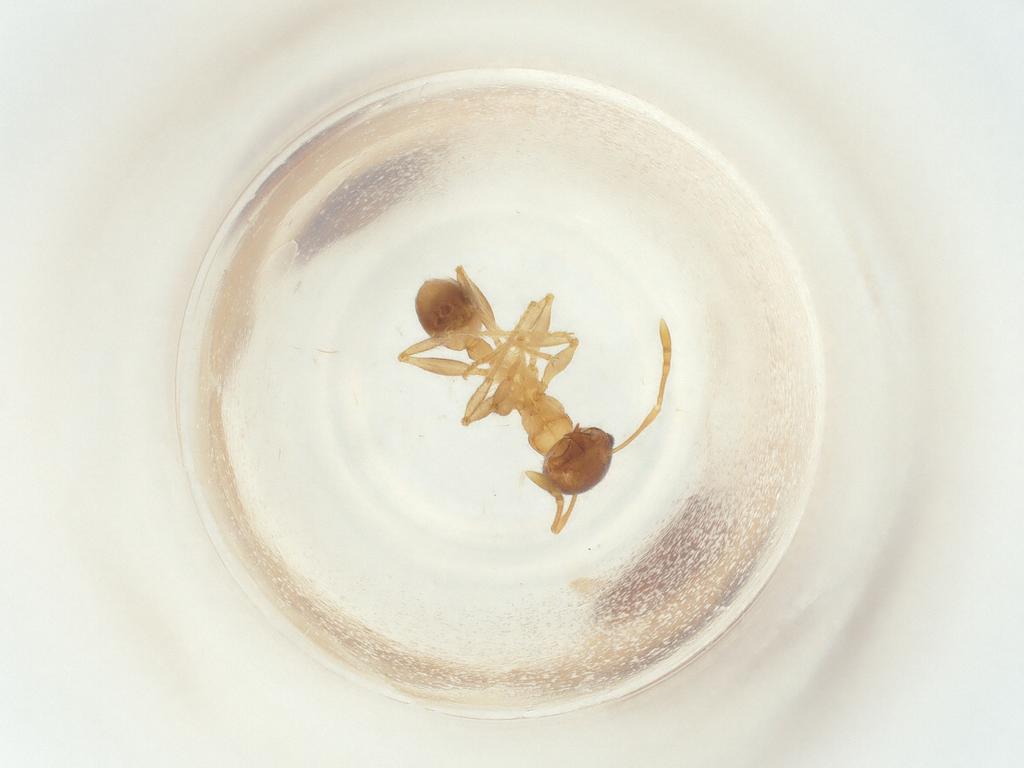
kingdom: Animalia
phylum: Arthropoda
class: Insecta
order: Hymenoptera
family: Formicidae
